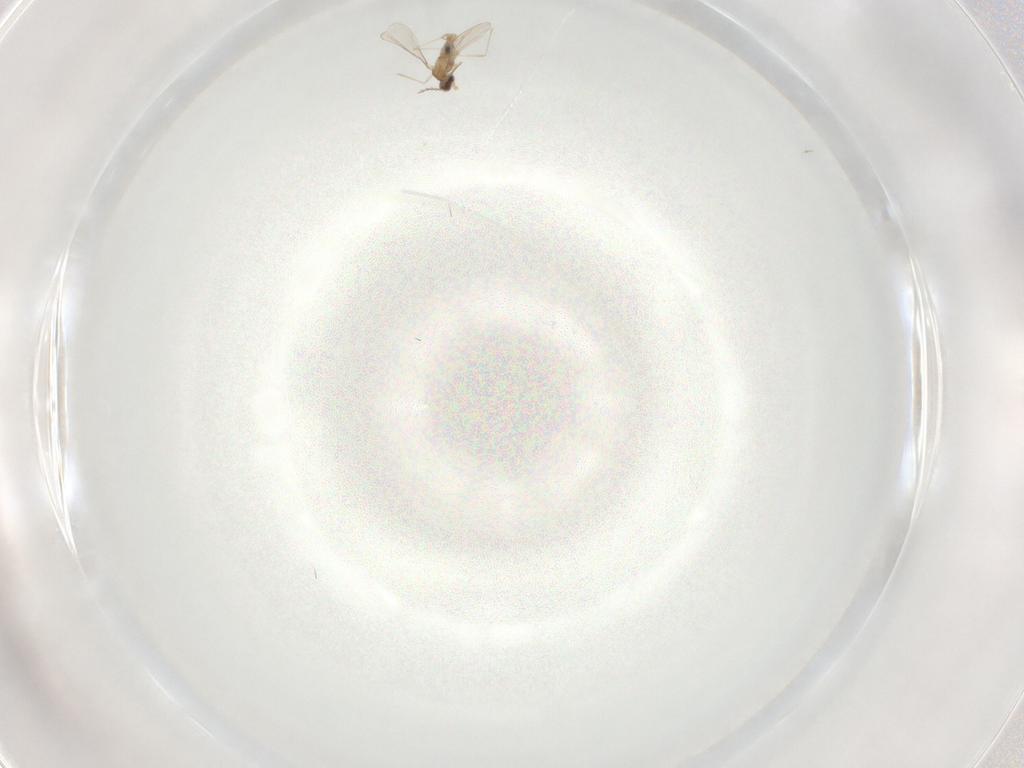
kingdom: Animalia
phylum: Arthropoda
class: Insecta
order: Diptera
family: Cecidomyiidae
